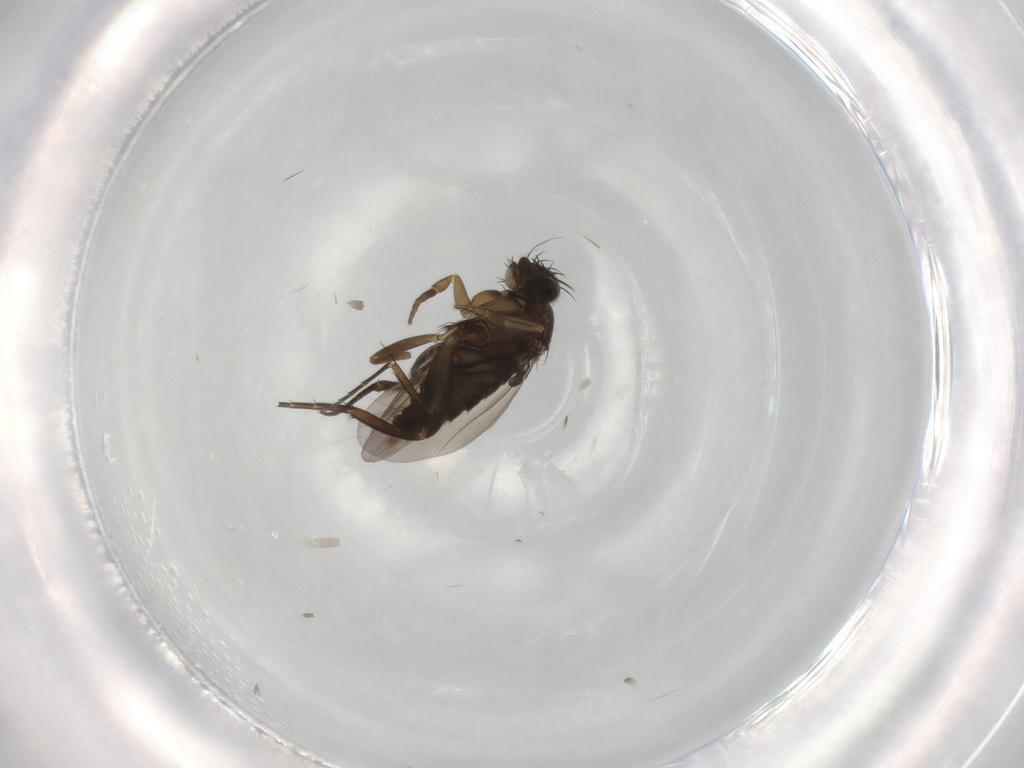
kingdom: Animalia
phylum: Arthropoda
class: Insecta
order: Diptera
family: Phoridae
